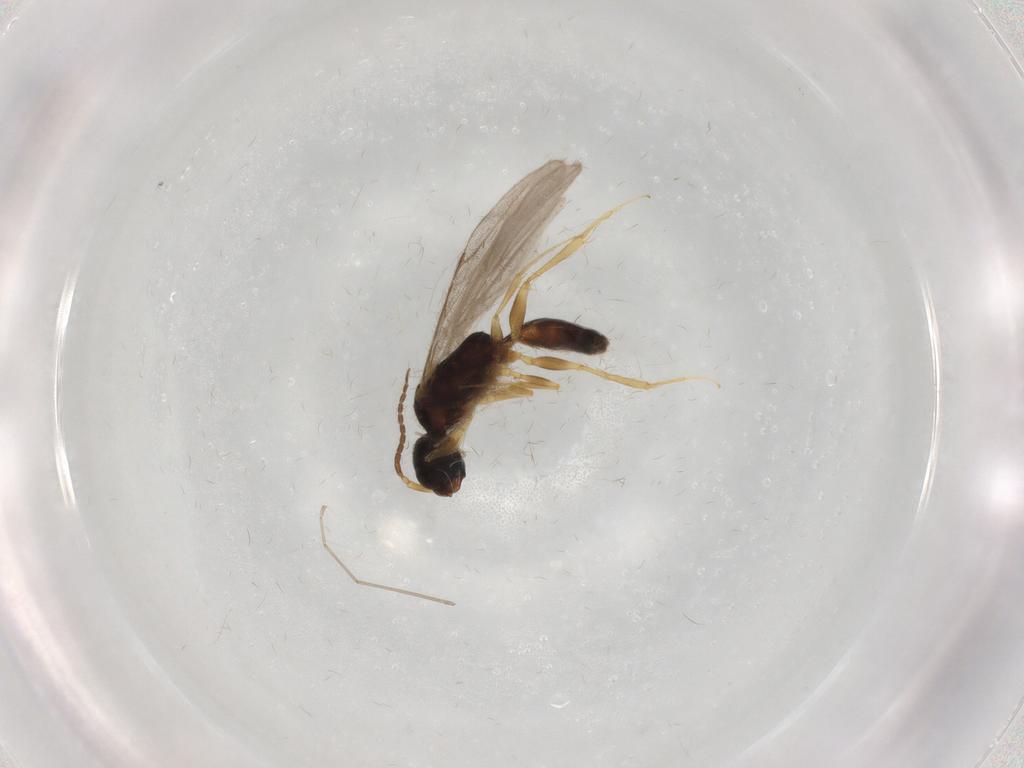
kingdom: Animalia
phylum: Arthropoda
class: Insecta
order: Hymenoptera
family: Bethylidae
